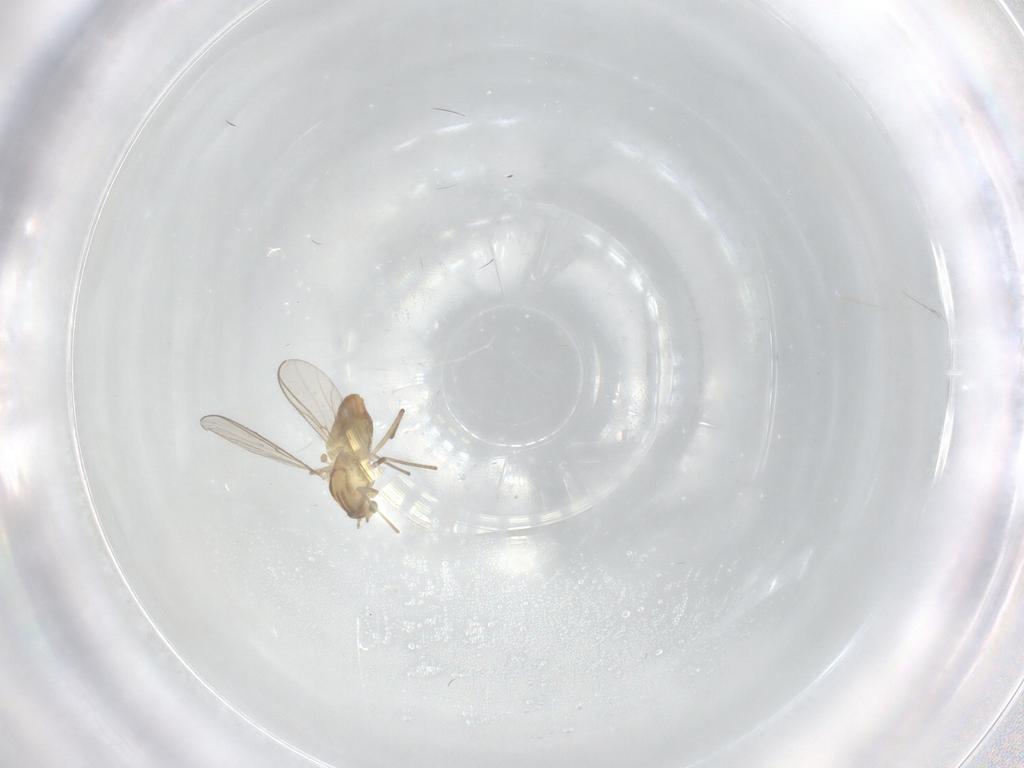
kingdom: Animalia
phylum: Arthropoda
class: Insecta
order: Diptera
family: Chironomidae
